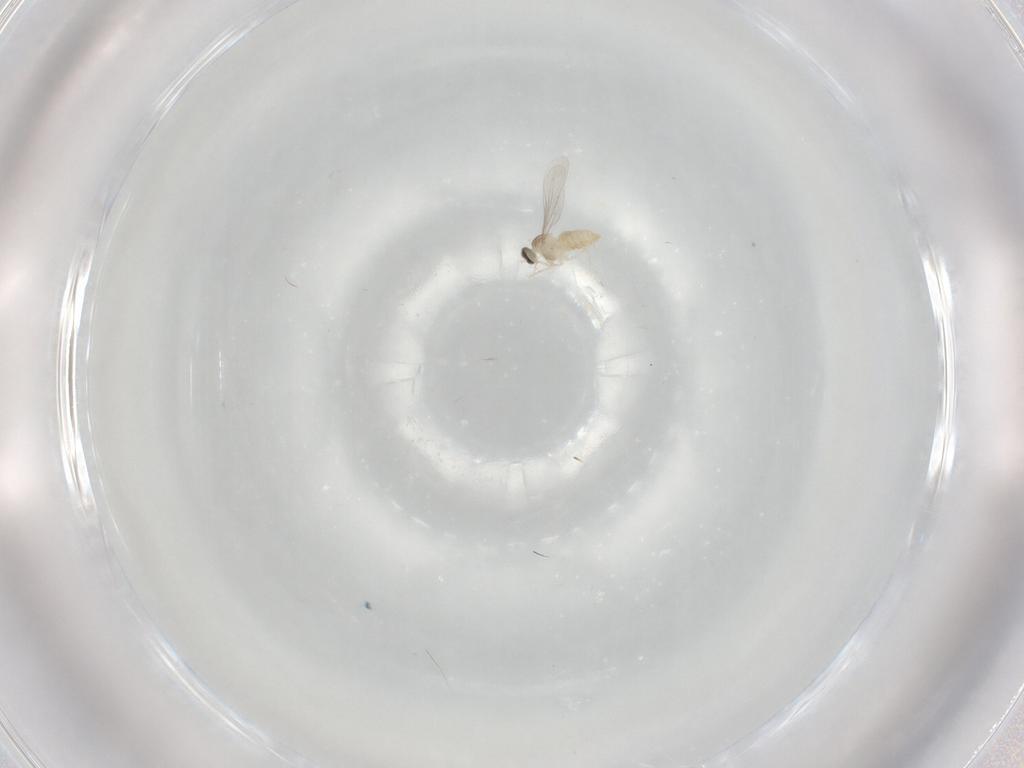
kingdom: Animalia
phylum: Arthropoda
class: Insecta
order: Diptera
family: Cecidomyiidae
